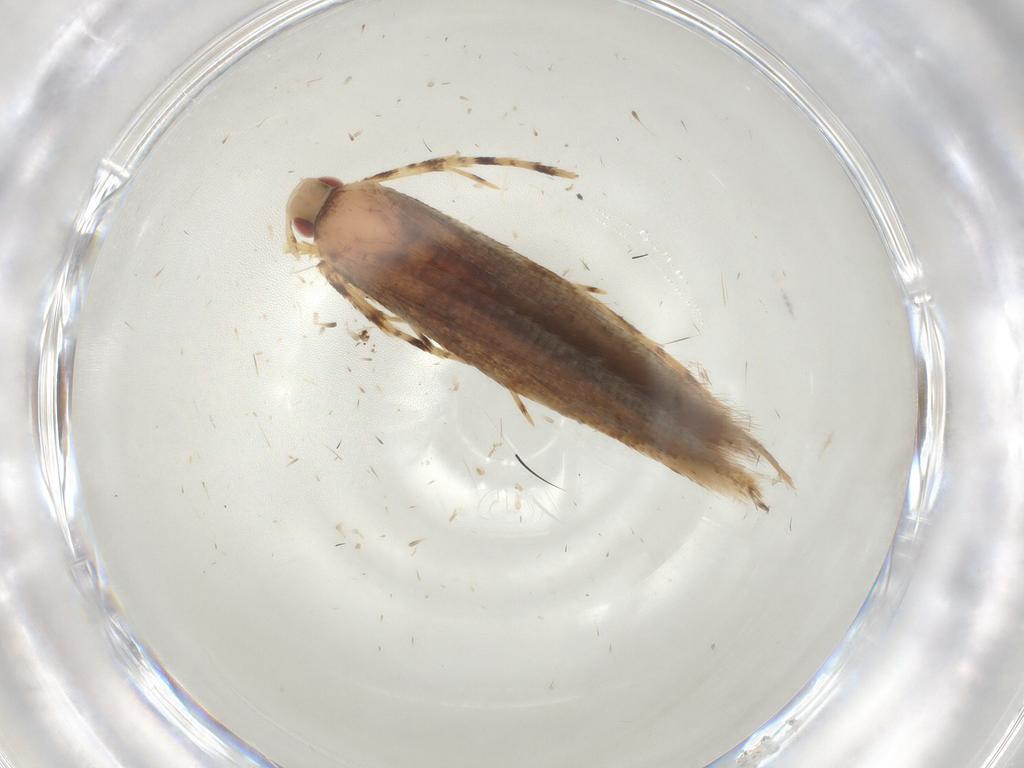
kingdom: Animalia
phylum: Arthropoda
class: Insecta
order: Lepidoptera
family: Cosmopterigidae
